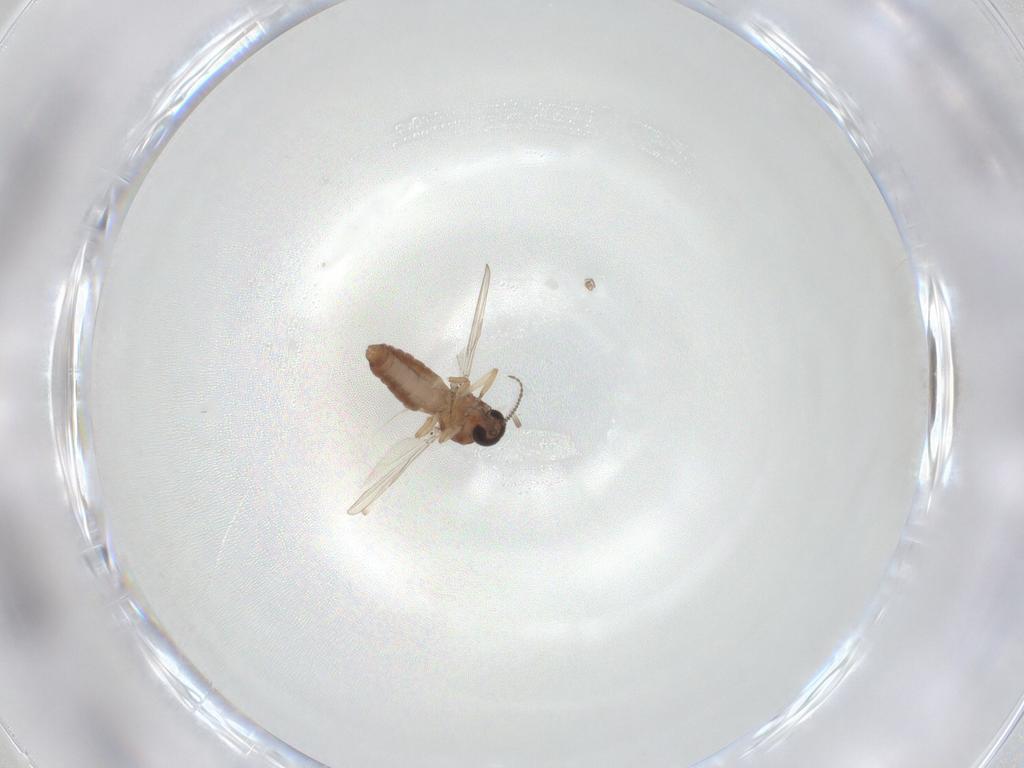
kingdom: Animalia
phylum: Arthropoda
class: Insecta
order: Diptera
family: Ceratopogonidae
